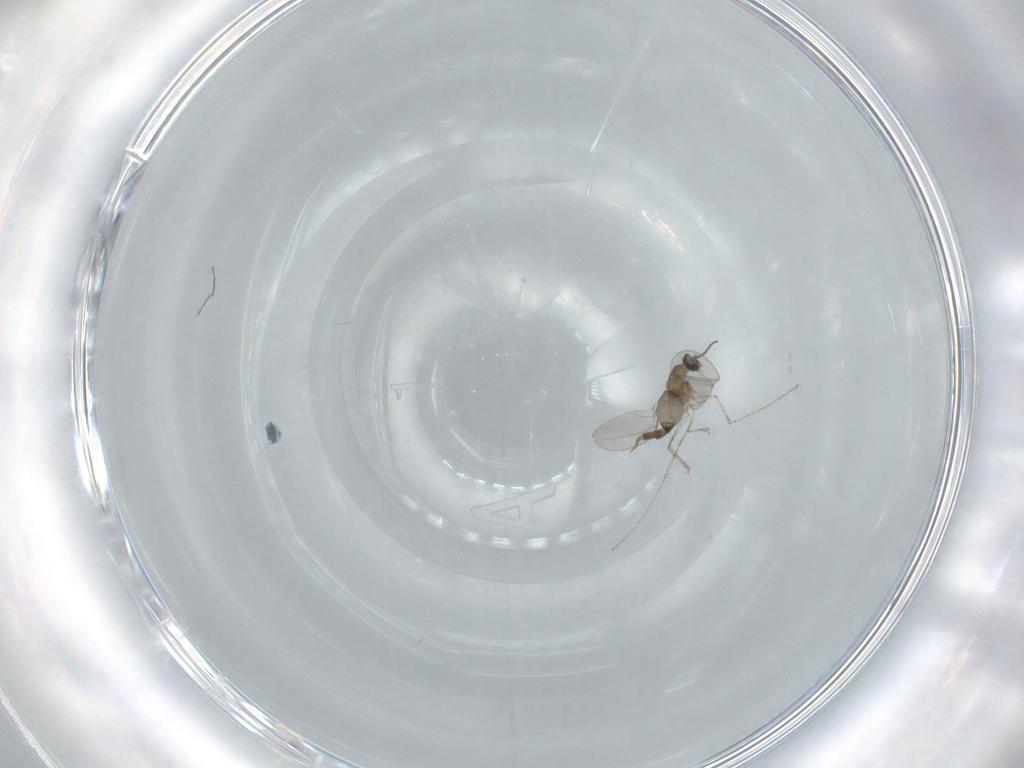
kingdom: Animalia
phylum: Arthropoda
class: Insecta
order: Diptera
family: Cecidomyiidae
